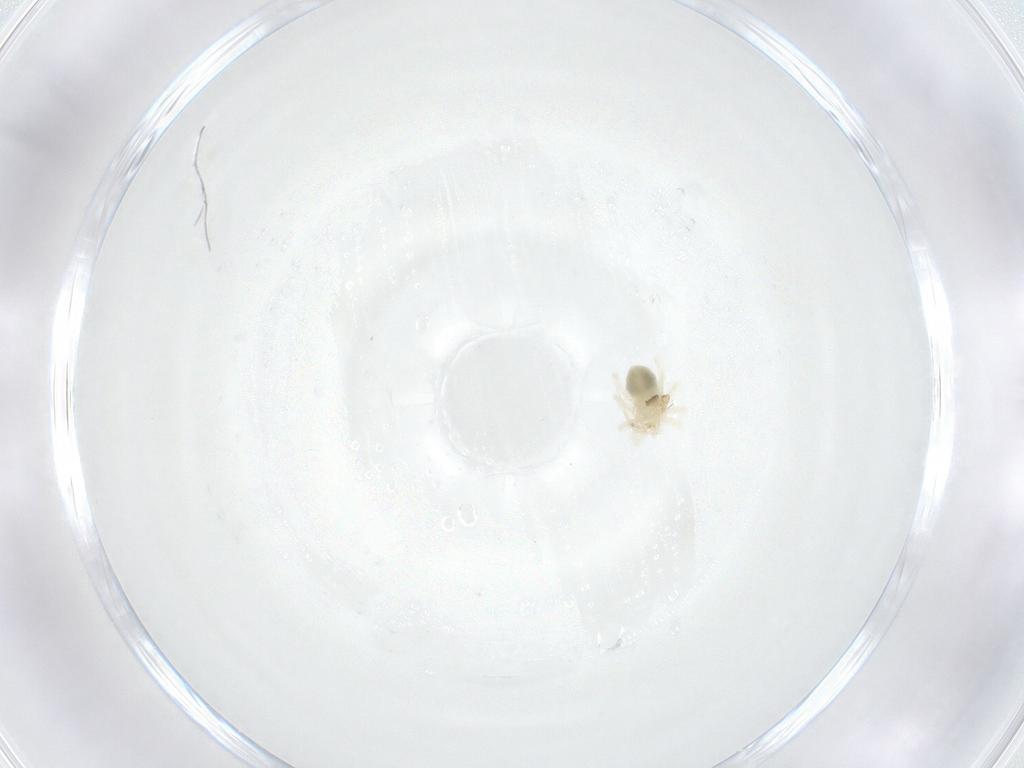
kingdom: Animalia
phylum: Arthropoda
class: Arachnida
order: Trombidiformes
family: Anystidae
